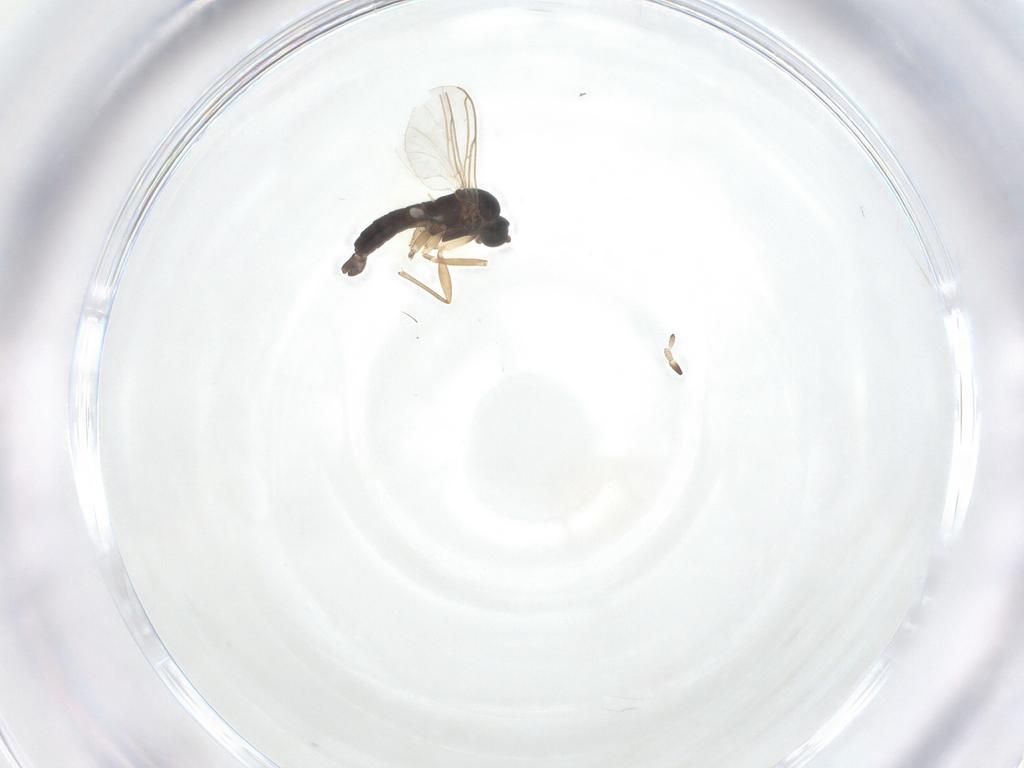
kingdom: Animalia
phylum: Arthropoda
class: Insecta
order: Diptera
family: Sciaridae
